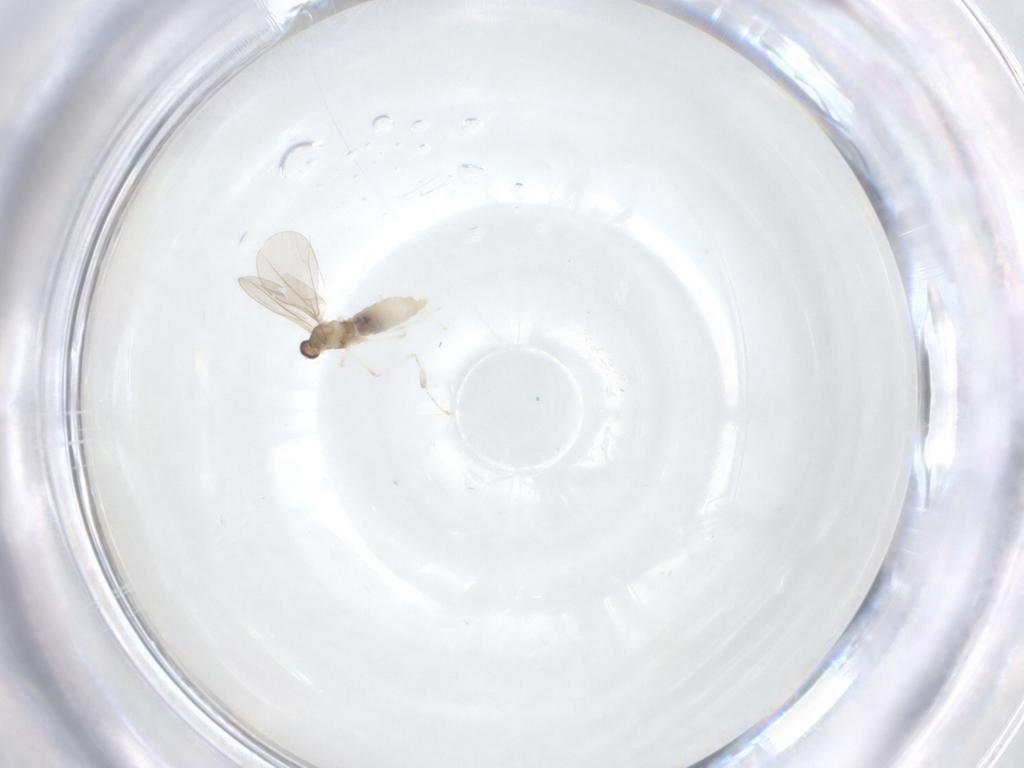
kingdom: Animalia
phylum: Arthropoda
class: Insecta
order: Diptera
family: Cecidomyiidae
